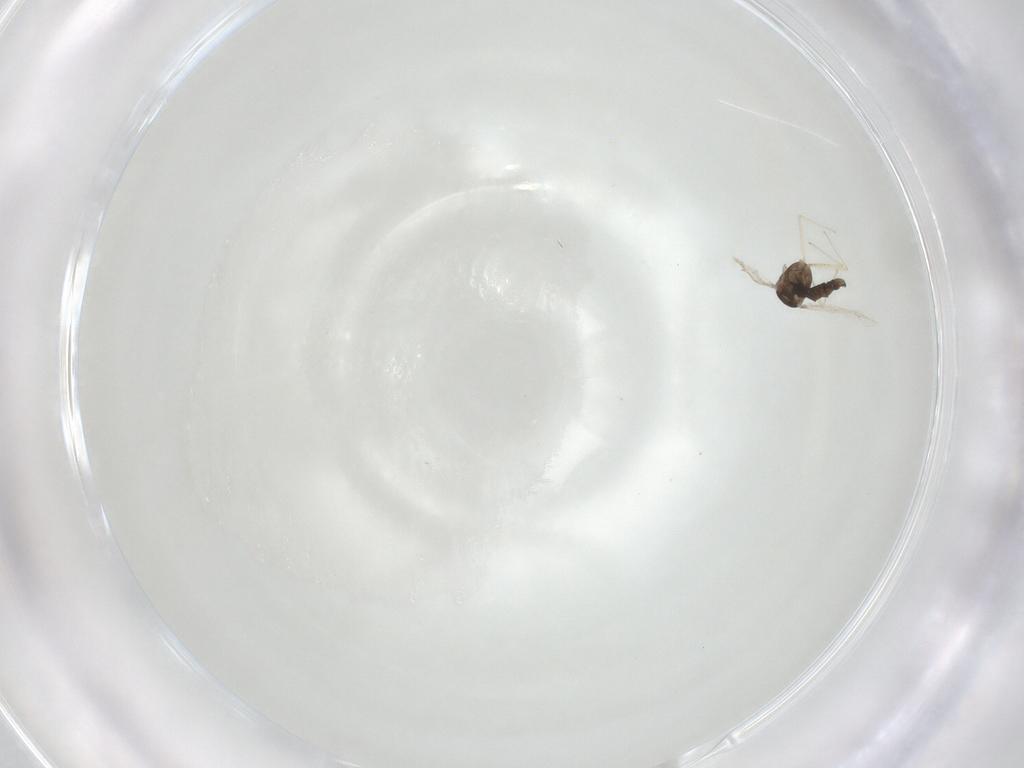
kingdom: Animalia
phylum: Arthropoda
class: Insecta
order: Diptera
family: Chironomidae
